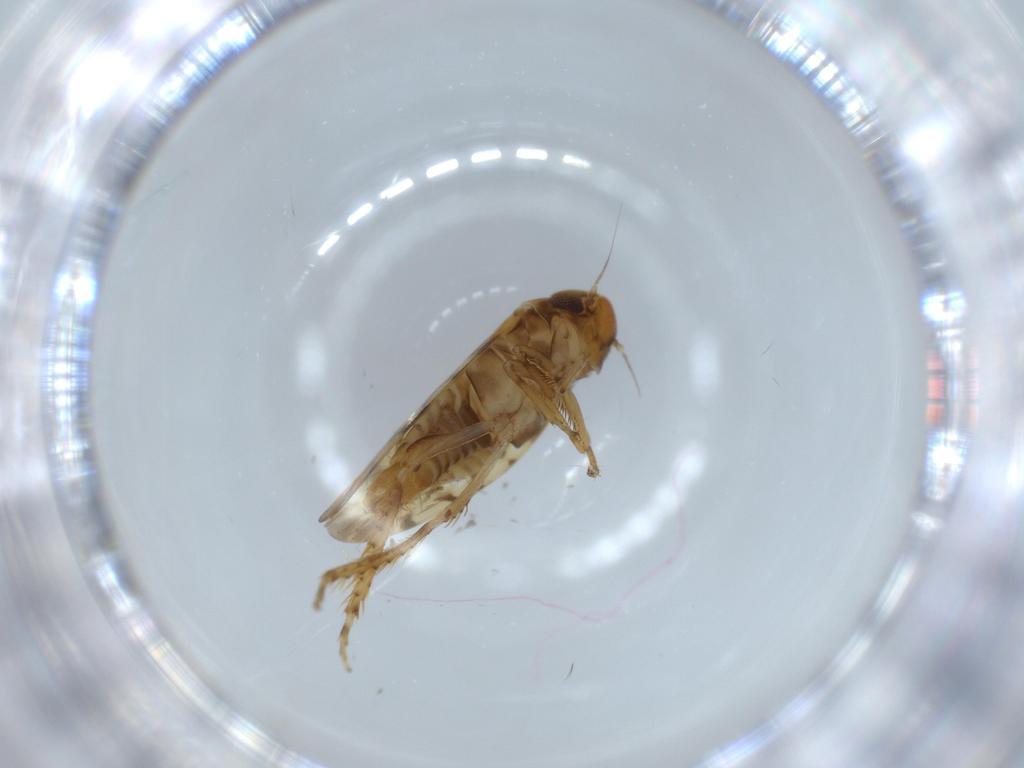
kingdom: Animalia
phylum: Arthropoda
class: Insecta
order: Hemiptera
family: Cicadellidae
